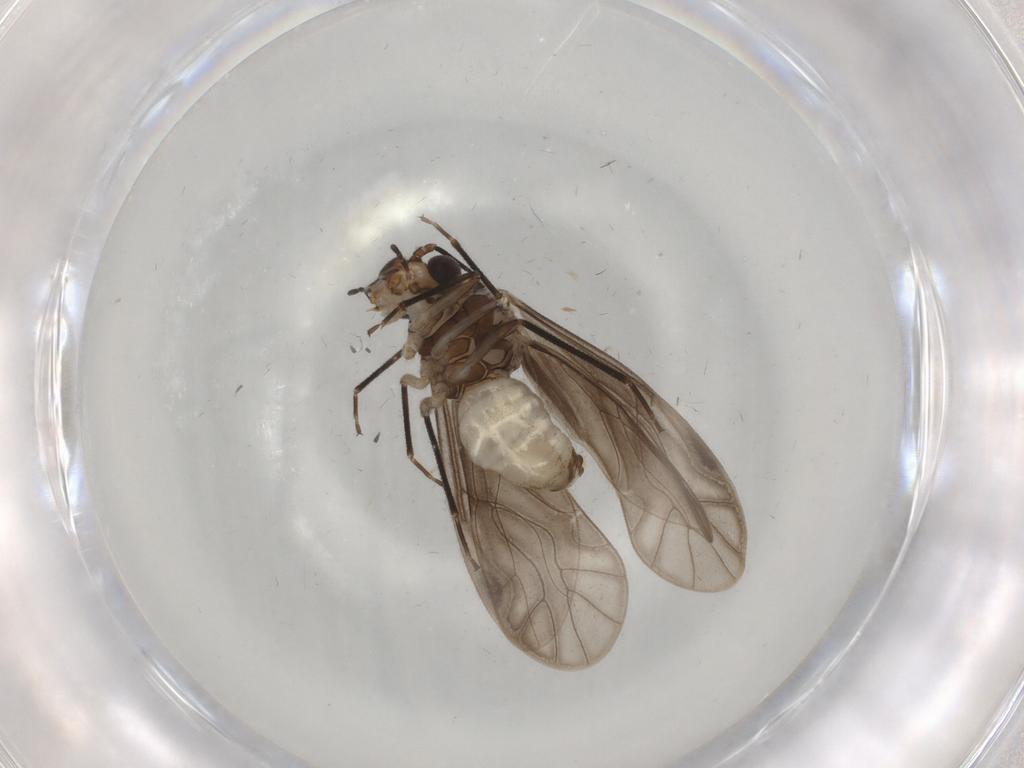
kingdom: Animalia
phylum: Arthropoda
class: Insecta
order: Psocodea
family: Caeciliusidae
